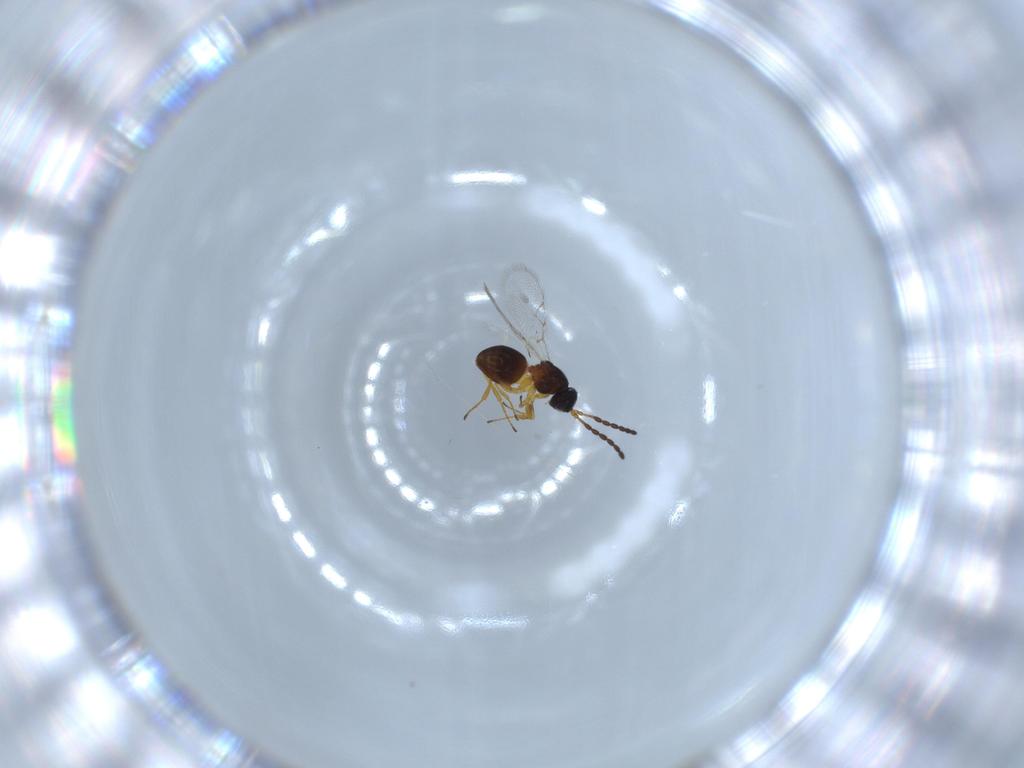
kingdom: Animalia
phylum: Arthropoda
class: Insecta
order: Hymenoptera
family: Figitidae
